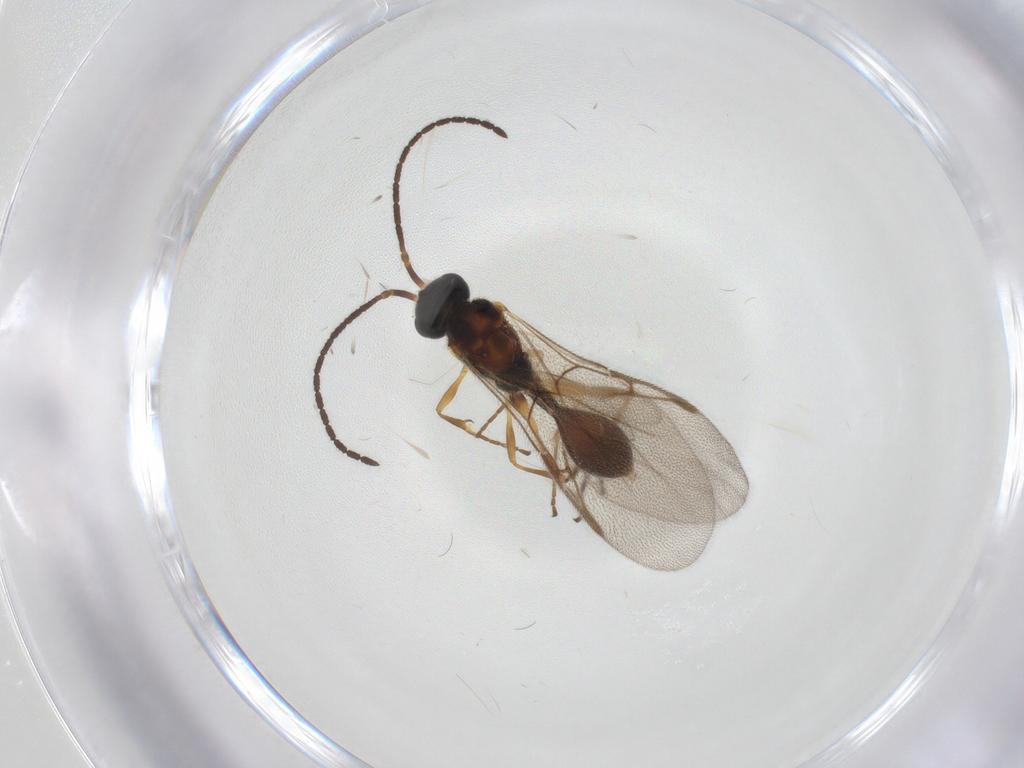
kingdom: Animalia
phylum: Arthropoda
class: Insecta
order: Hymenoptera
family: Diapriidae
